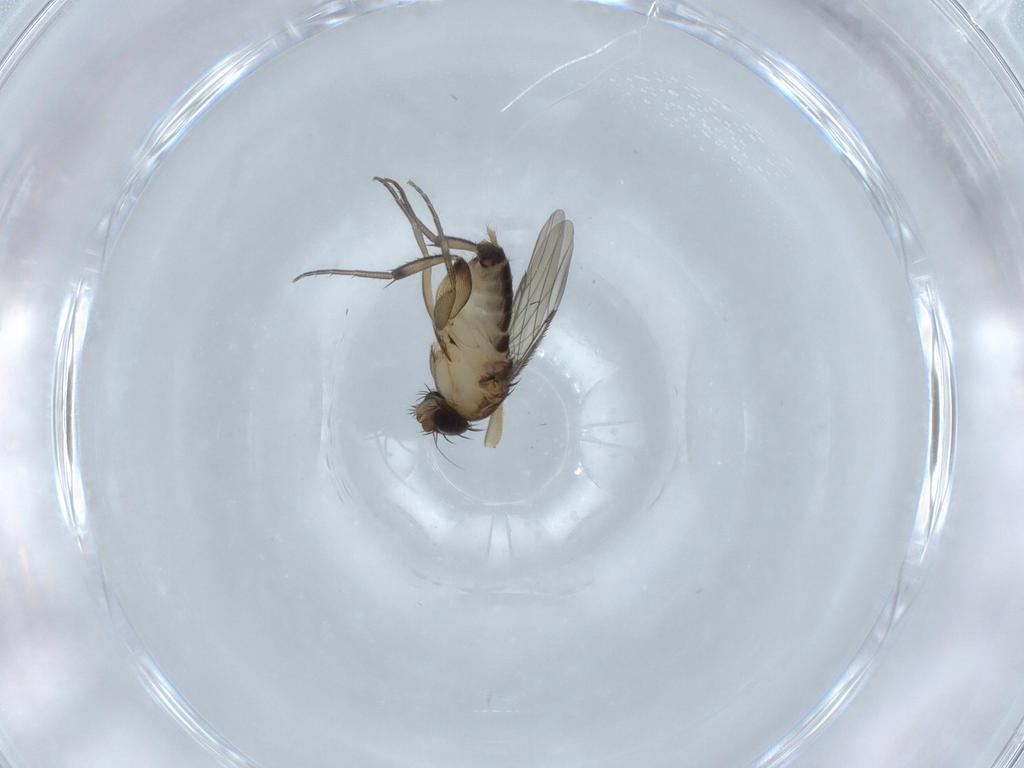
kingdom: Animalia
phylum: Arthropoda
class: Insecta
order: Diptera
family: Phoridae
